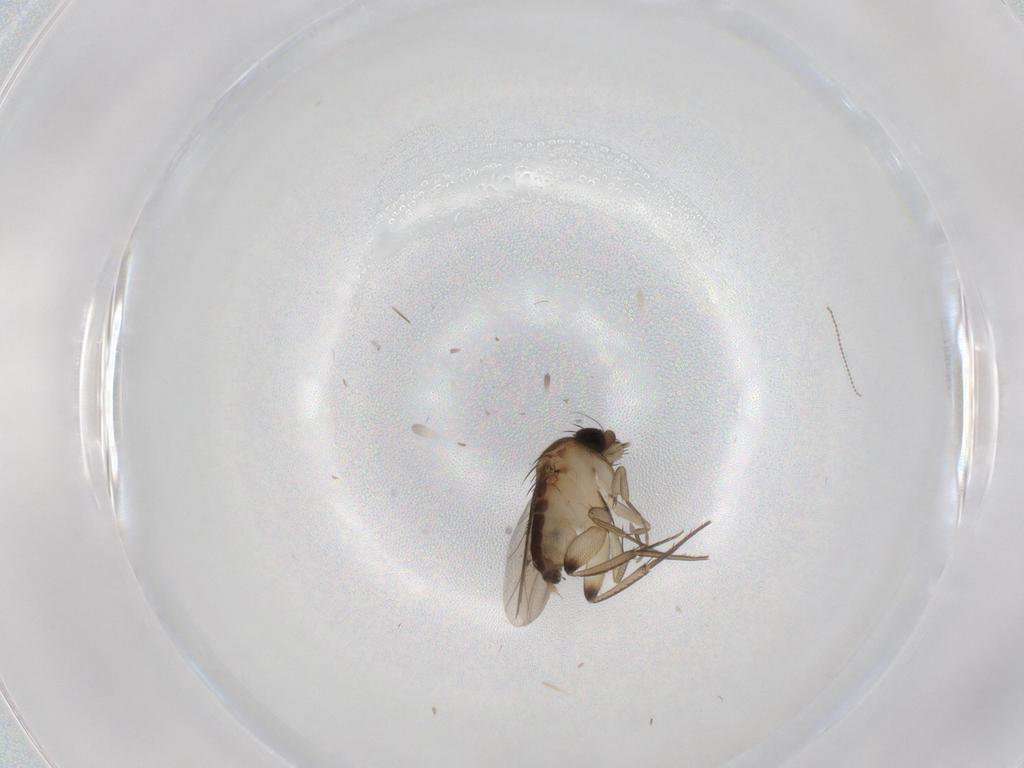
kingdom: Animalia
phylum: Arthropoda
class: Insecta
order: Diptera
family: Phoridae
